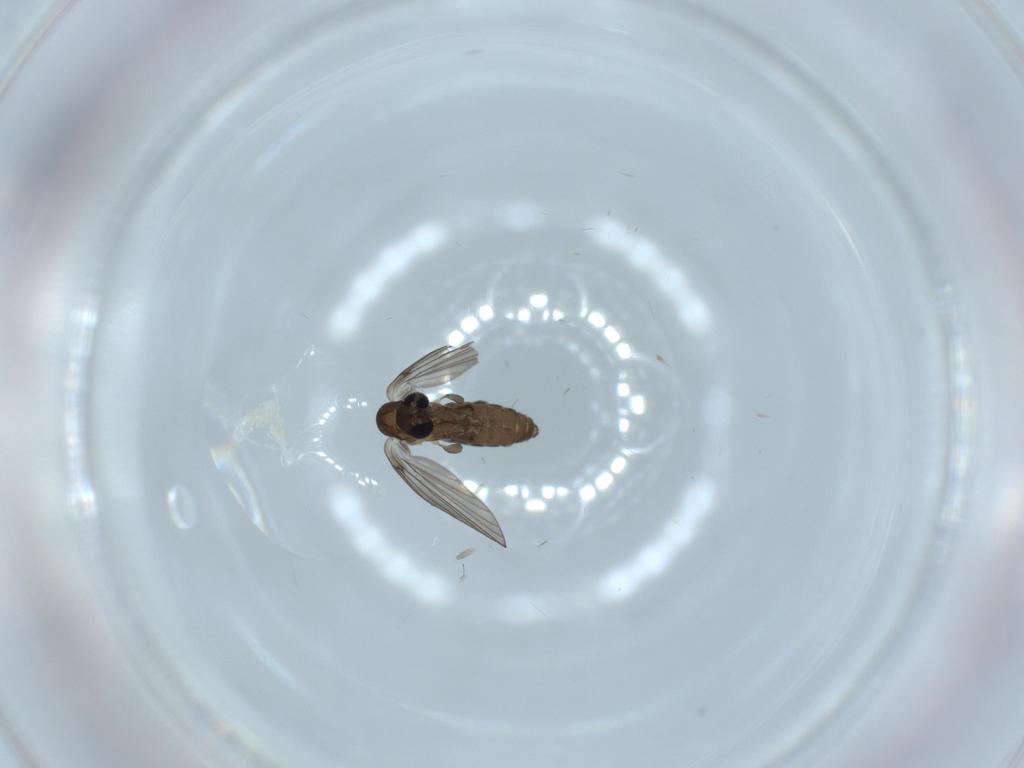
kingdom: Animalia
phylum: Arthropoda
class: Insecta
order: Diptera
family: Psychodidae
